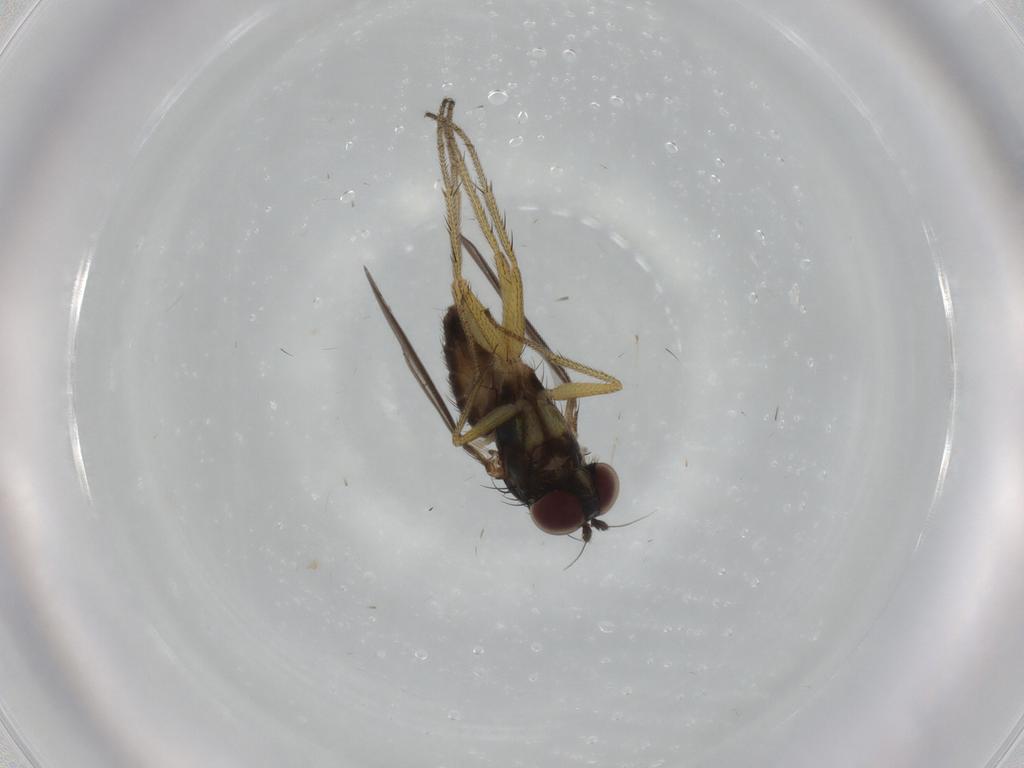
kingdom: Animalia
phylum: Arthropoda
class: Insecta
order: Diptera
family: Dolichopodidae
